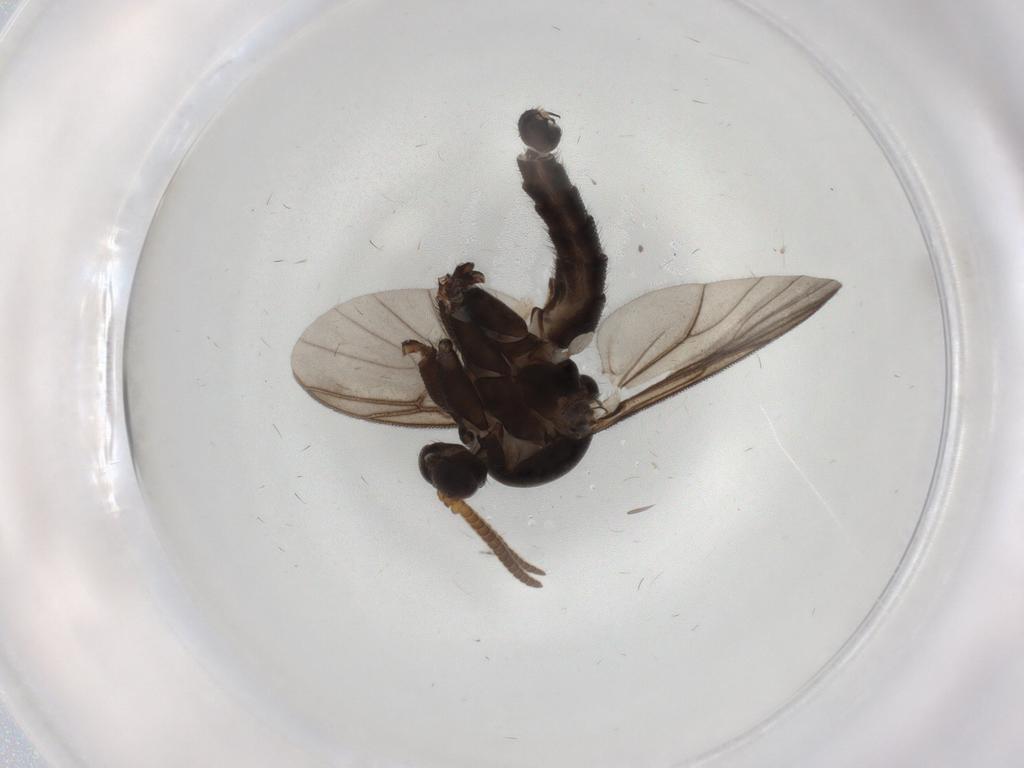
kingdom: Animalia
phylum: Arthropoda
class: Insecta
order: Diptera
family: Mycetophilidae
